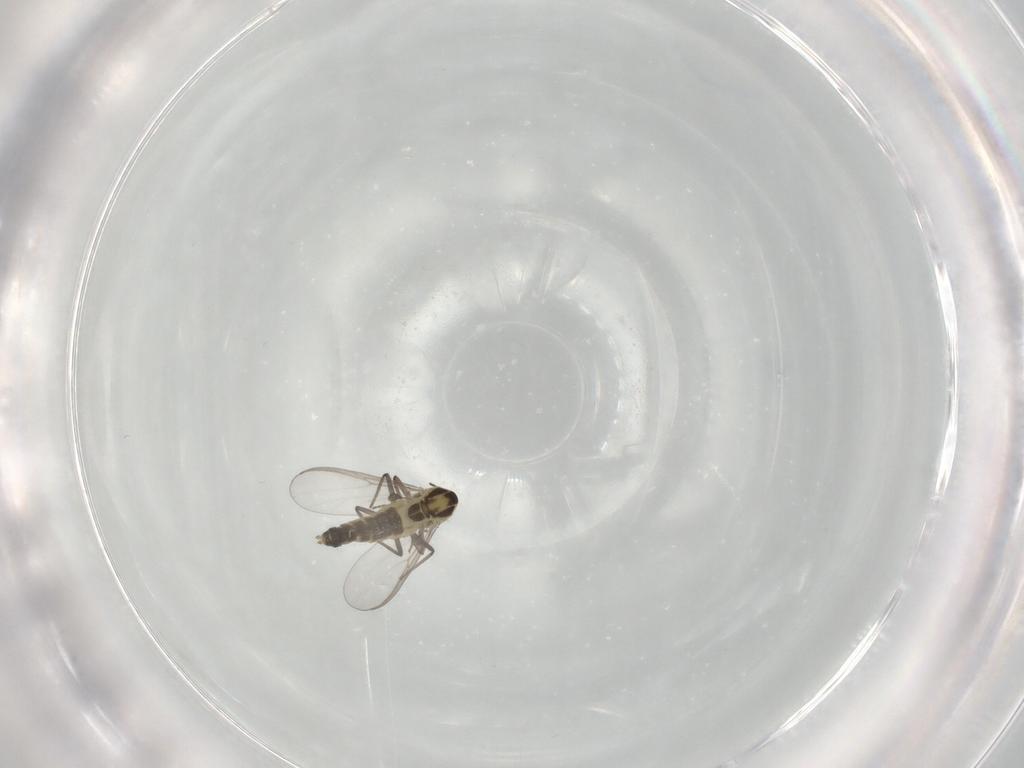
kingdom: Animalia
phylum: Arthropoda
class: Insecta
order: Diptera
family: Chironomidae
